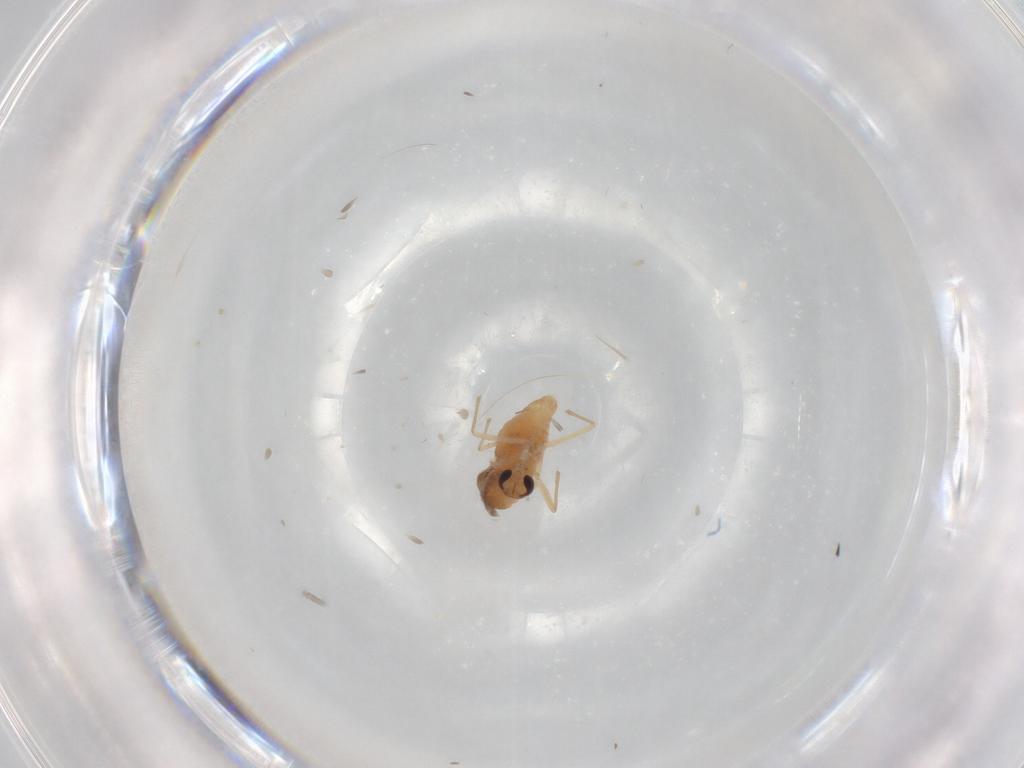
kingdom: Animalia
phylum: Arthropoda
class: Insecta
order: Diptera
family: Chironomidae
